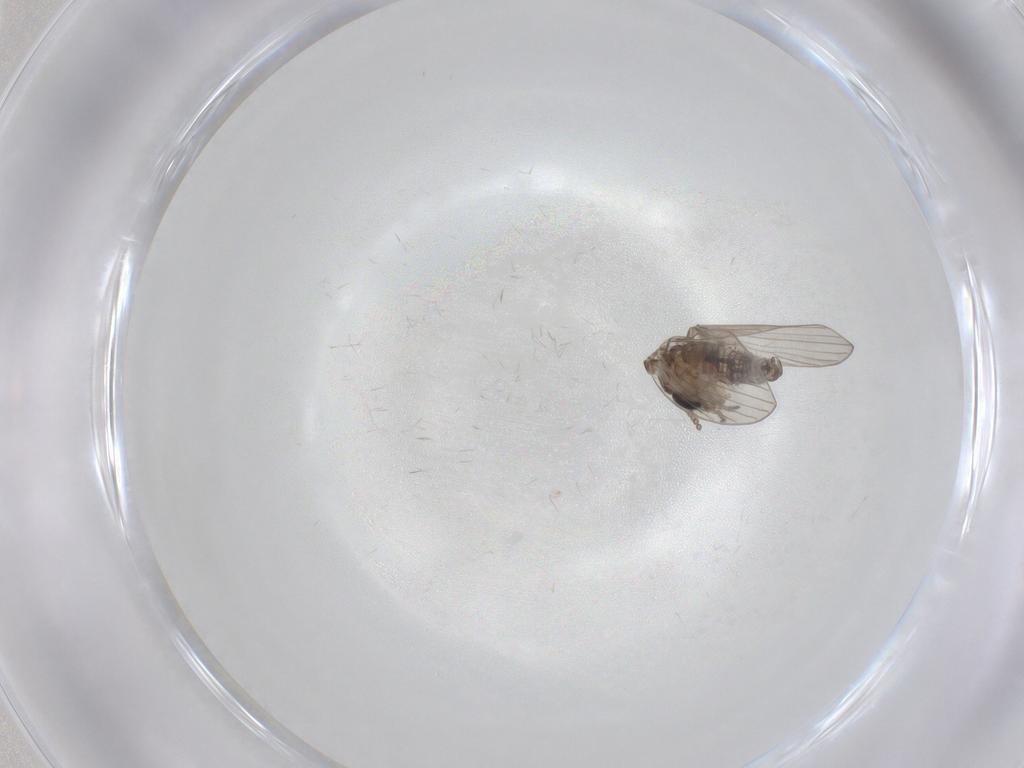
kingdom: Animalia
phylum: Arthropoda
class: Insecta
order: Diptera
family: Psychodidae
